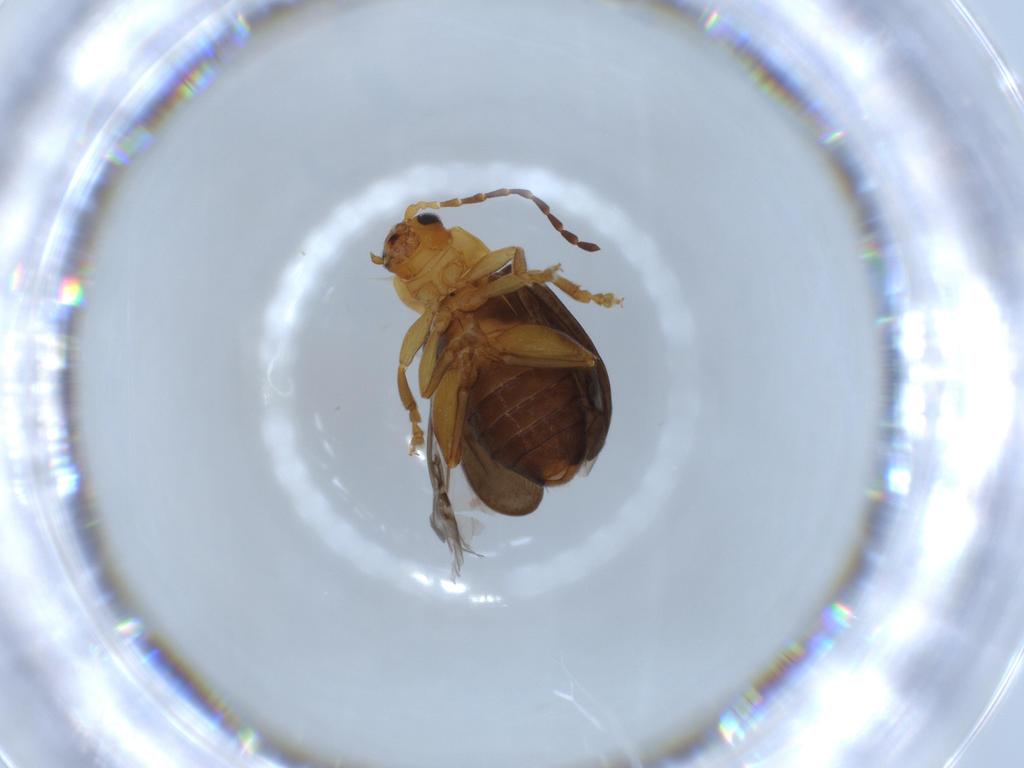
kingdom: Animalia
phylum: Arthropoda
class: Insecta
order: Coleoptera
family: Chrysomelidae
